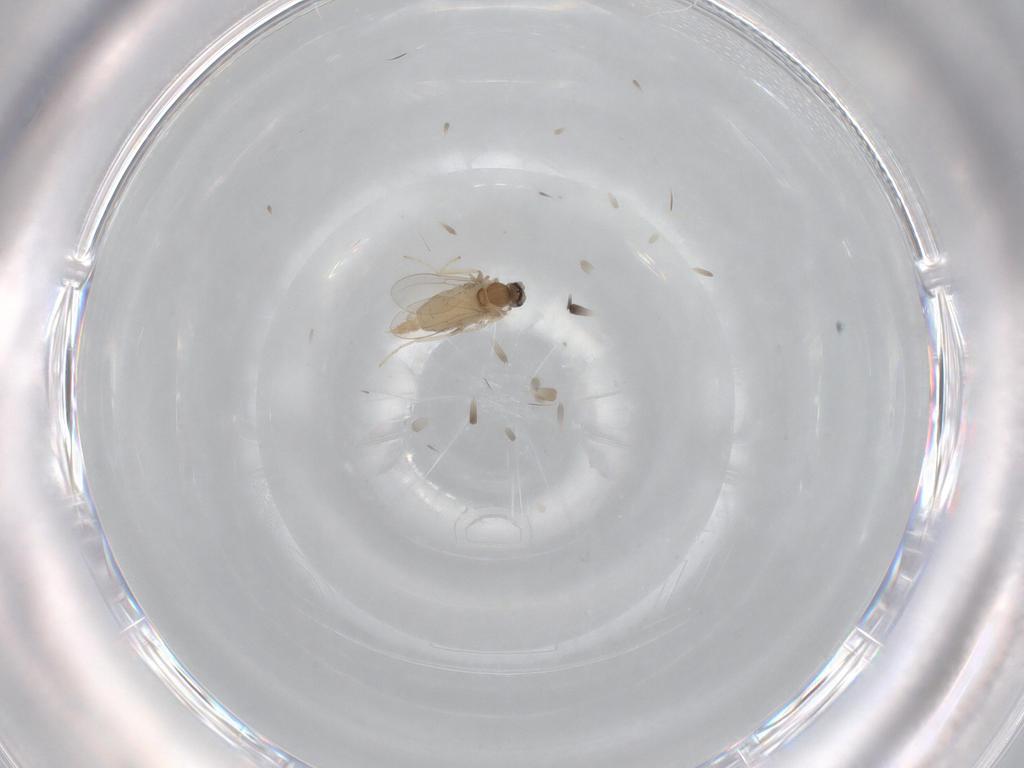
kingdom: Animalia
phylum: Arthropoda
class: Insecta
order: Diptera
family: Cecidomyiidae
